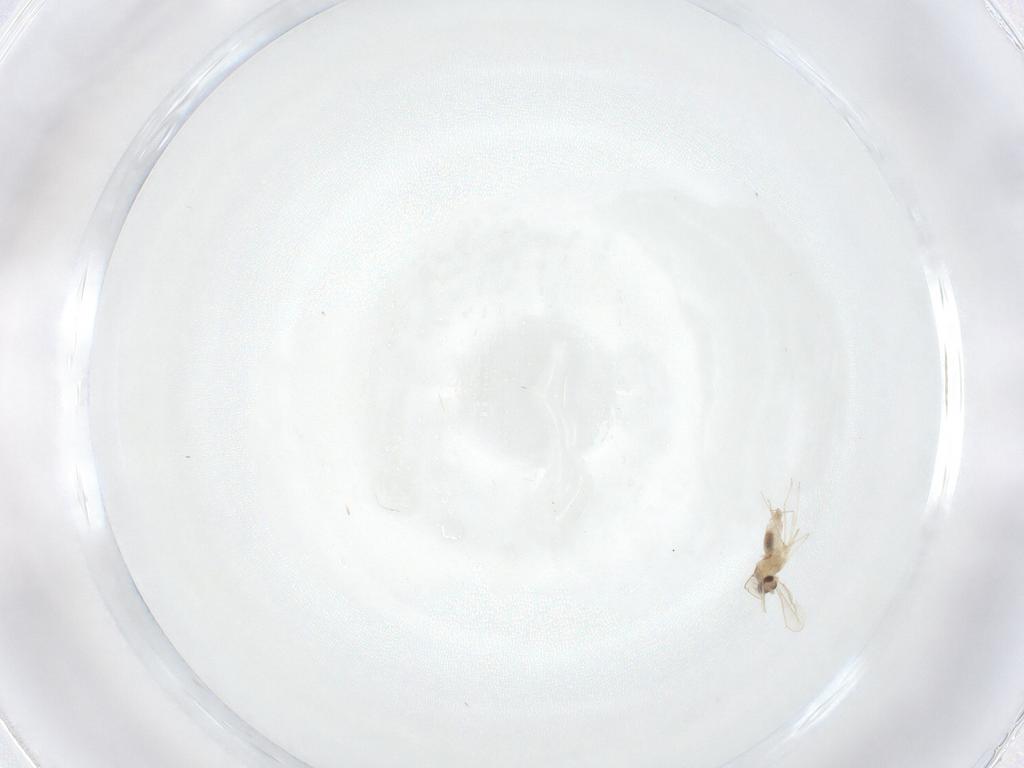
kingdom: Animalia
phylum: Arthropoda
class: Insecta
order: Diptera
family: Cecidomyiidae
